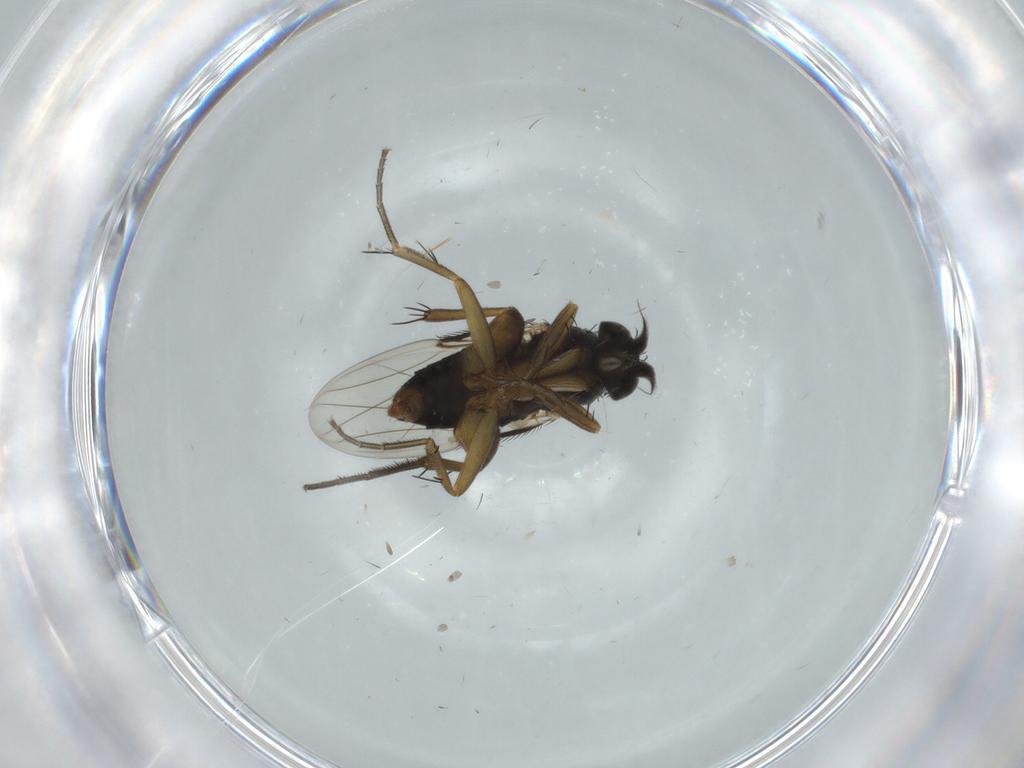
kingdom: Animalia
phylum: Arthropoda
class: Insecta
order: Diptera
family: Phoridae
